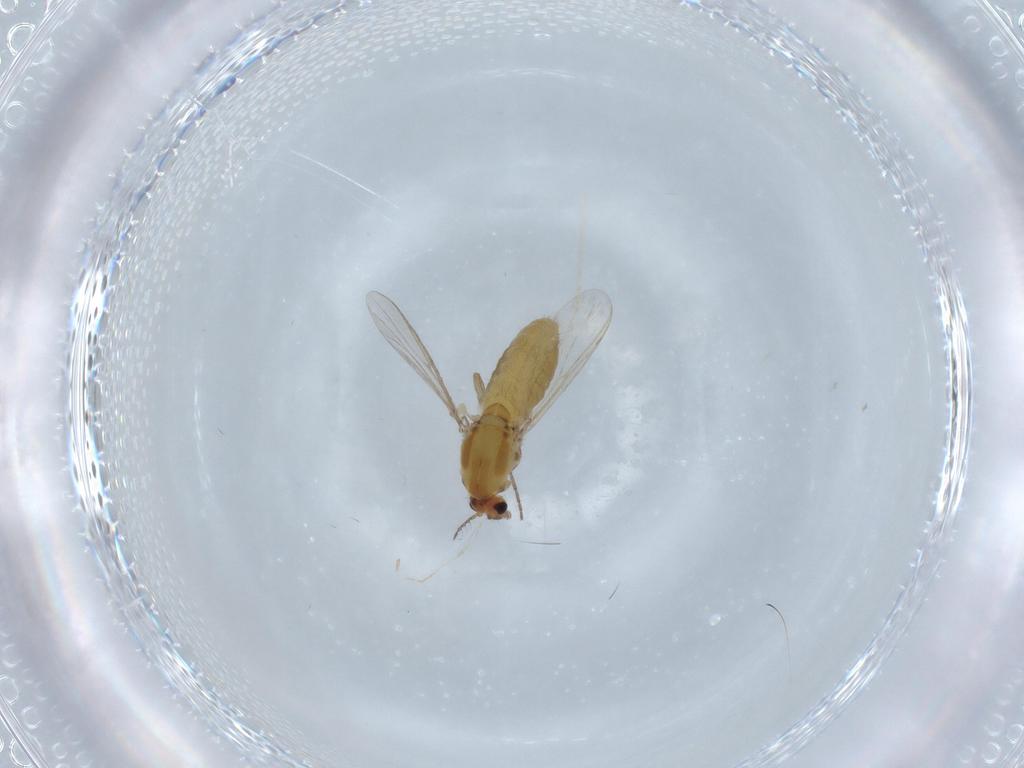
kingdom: Animalia
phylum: Arthropoda
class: Insecta
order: Diptera
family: Chironomidae
